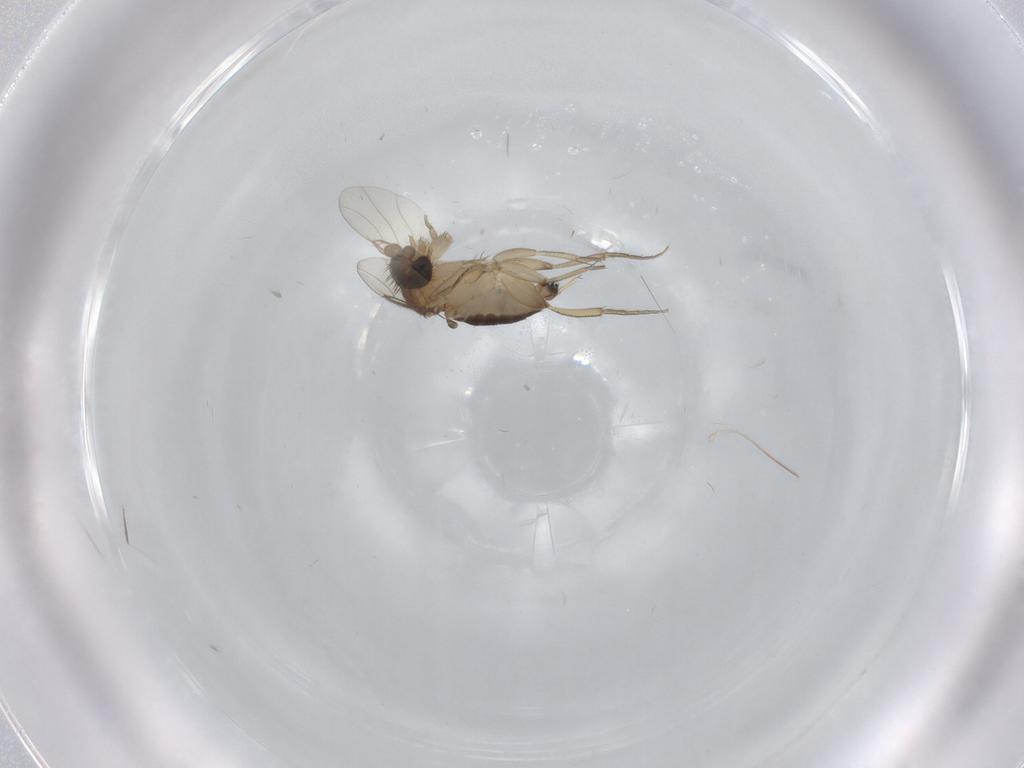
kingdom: Animalia
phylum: Arthropoda
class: Insecta
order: Diptera
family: Phoridae
